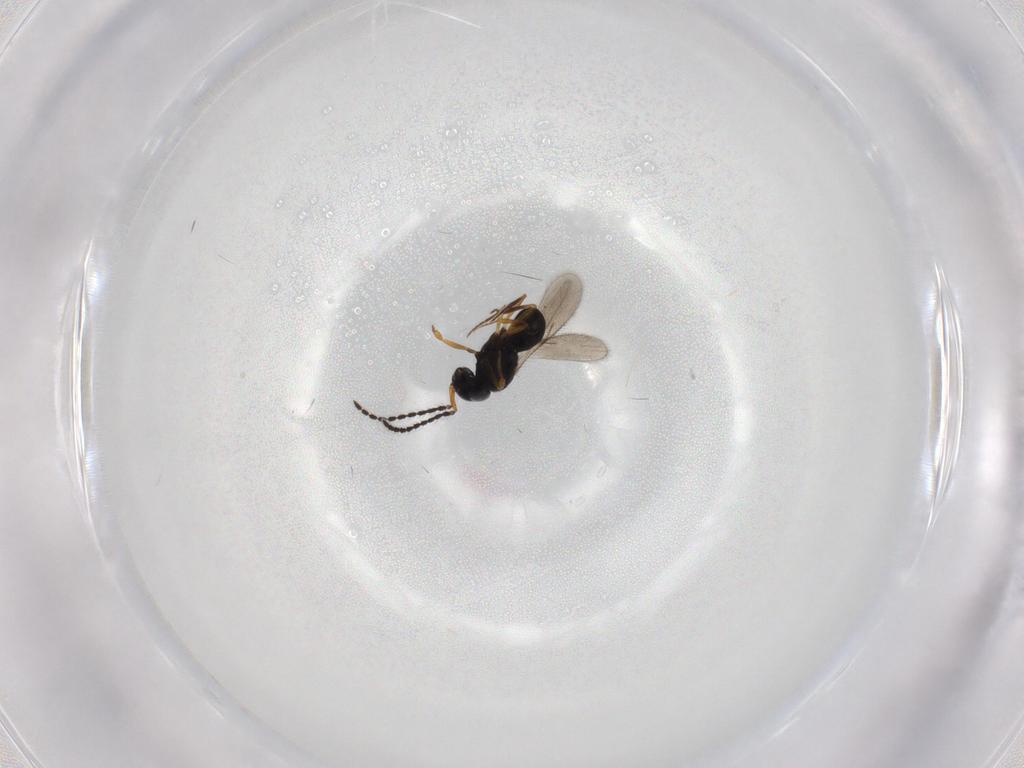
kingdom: Animalia
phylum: Arthropoda
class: Insecta
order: Hymenoptera
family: Scelionidae
